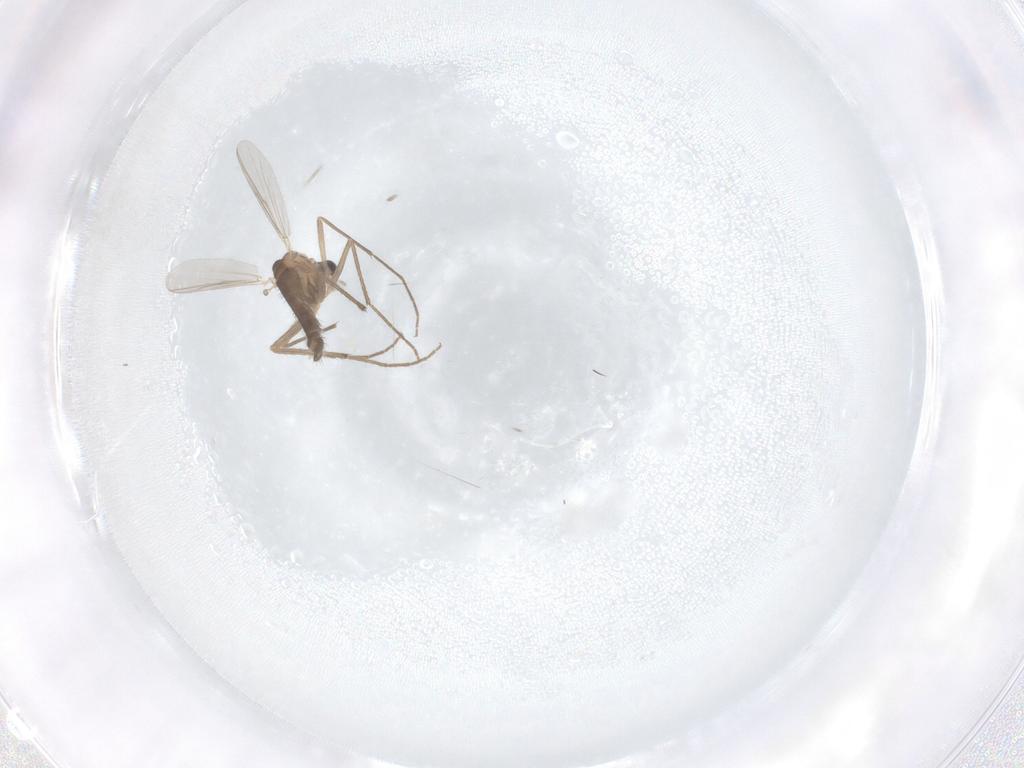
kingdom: Animalia
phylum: Arthropoda
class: Insecta
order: Diptera
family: Chironomidae
